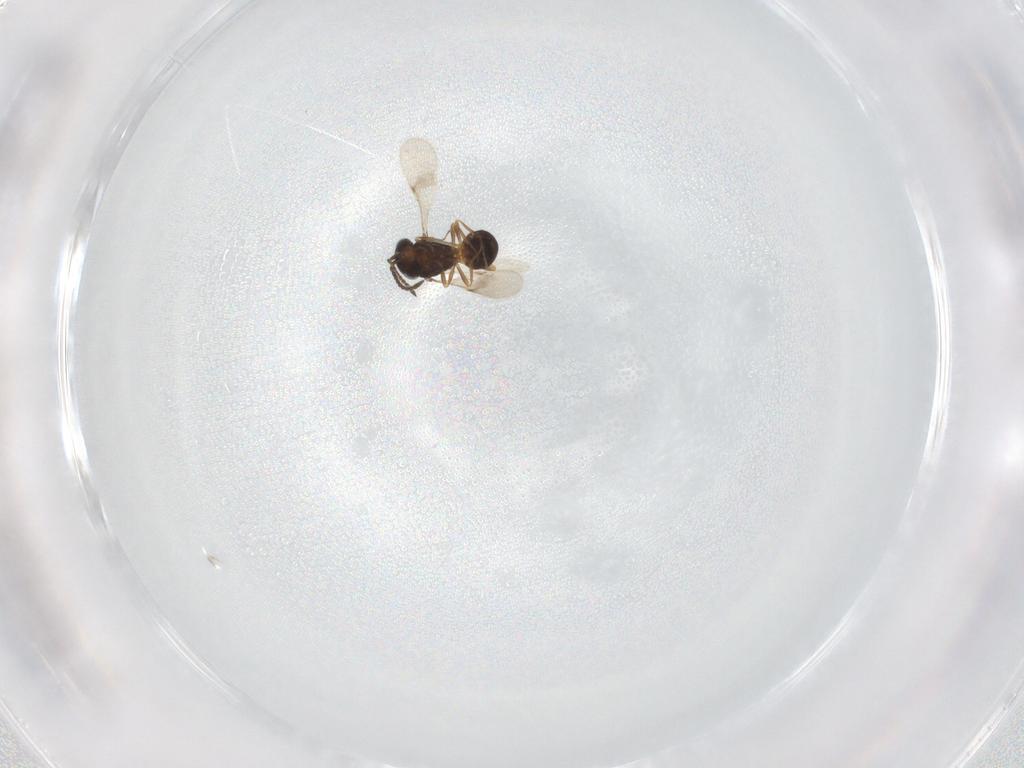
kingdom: Animalia
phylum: Arthropoda
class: Insecta
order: Hymenoptera
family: Scelionidae
